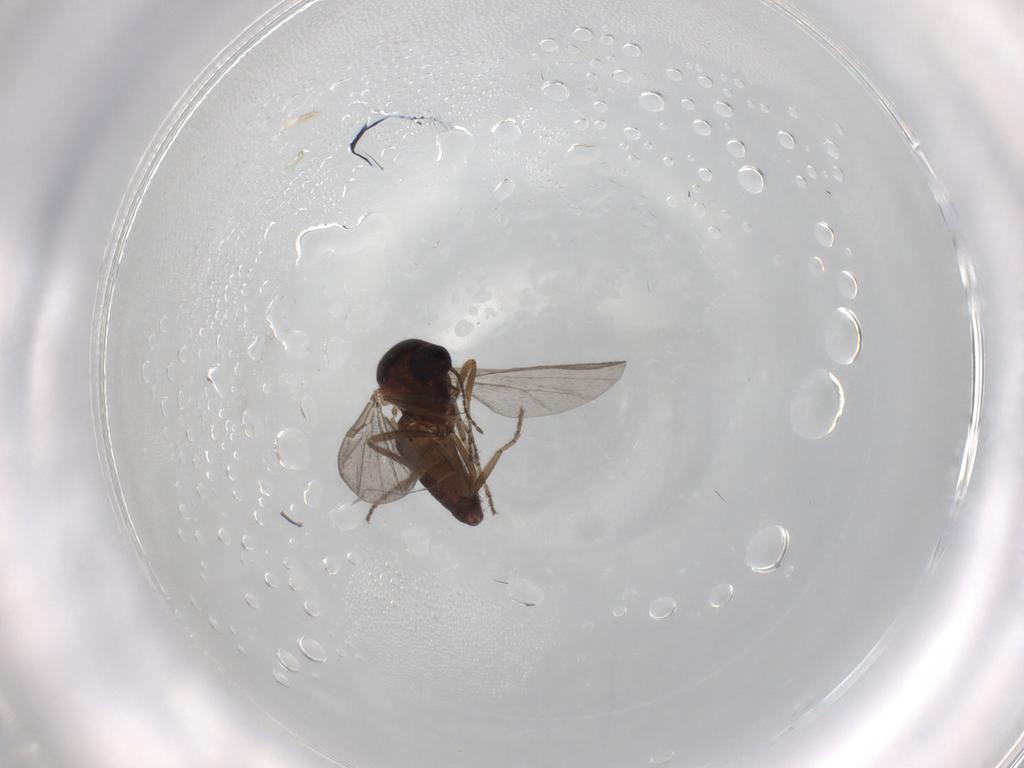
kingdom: Animalia
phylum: Arthropoda
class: Insecta
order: Diptera
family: Ceratopogonidae
